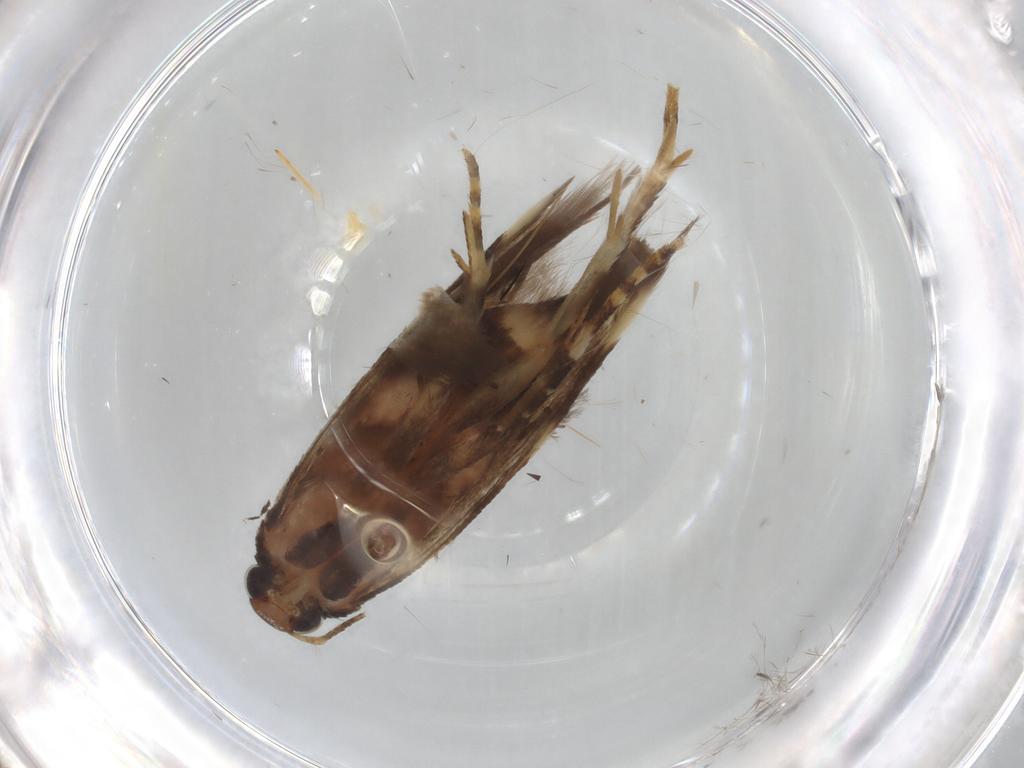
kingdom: Animalia
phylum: Arthropoda
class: Insecta
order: Lepidoptera
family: Gelechiidae
